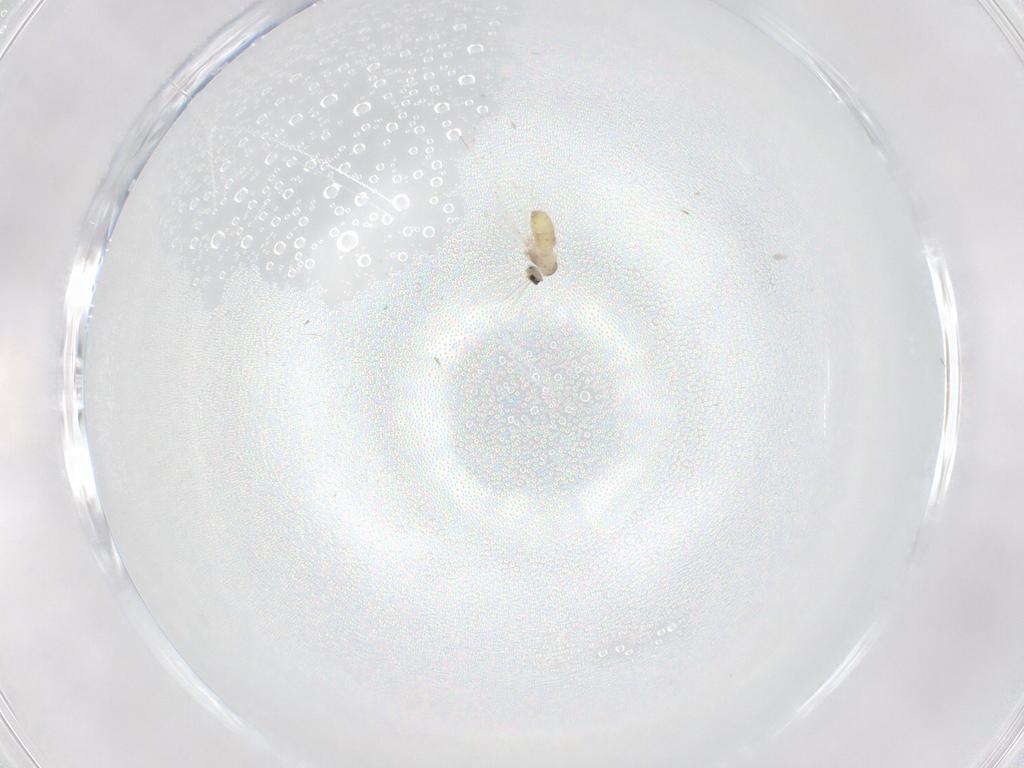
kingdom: Animalia
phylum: Arthropoda
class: Insecta
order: Diptera
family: Cecidomyiidae
